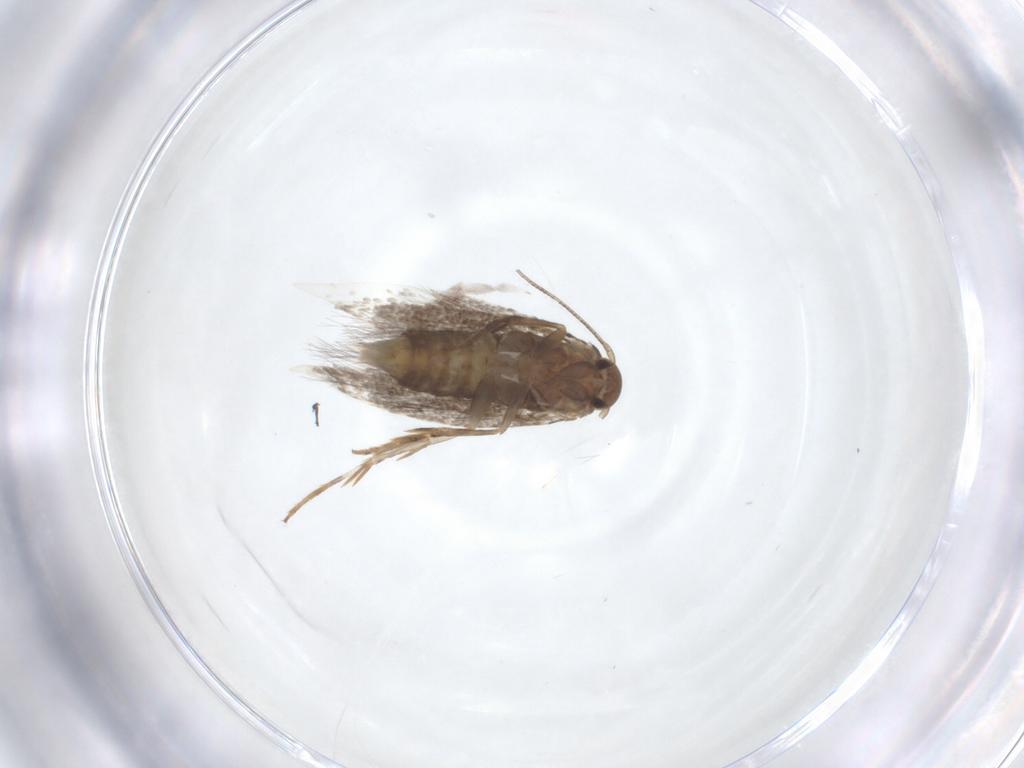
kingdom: Animalia
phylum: Arthropoda
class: Insecta
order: Lepidoptera
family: Elachistidae
